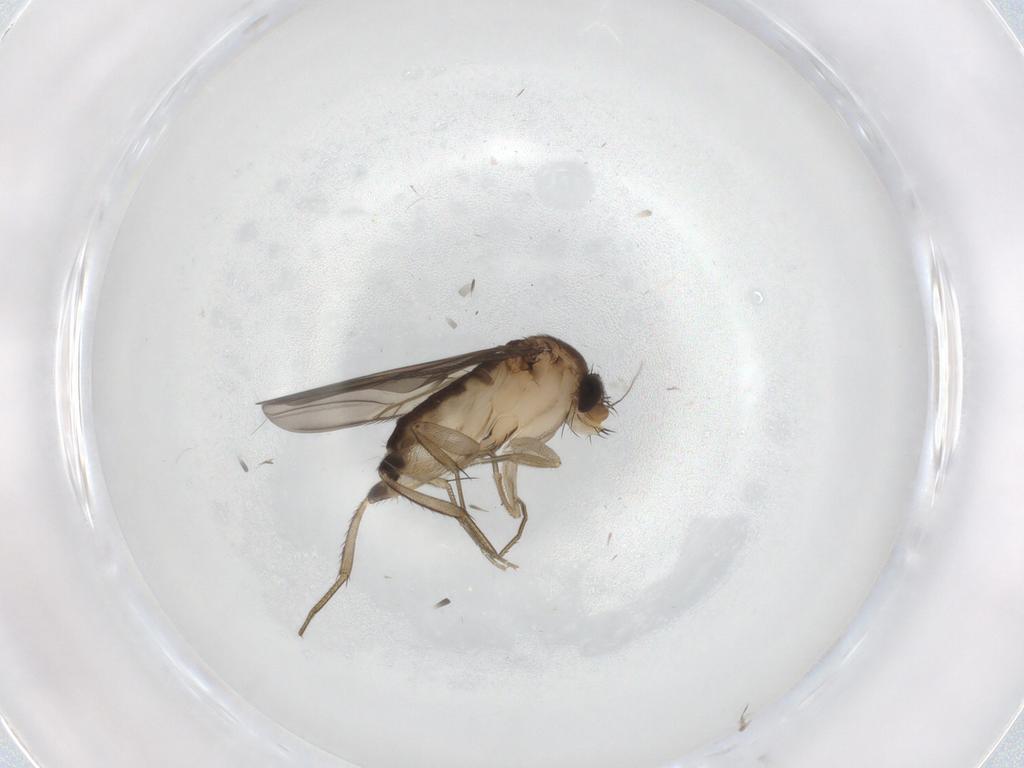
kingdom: Animalia
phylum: Arthropoda
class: Insecta
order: Diptera
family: Phoridae
